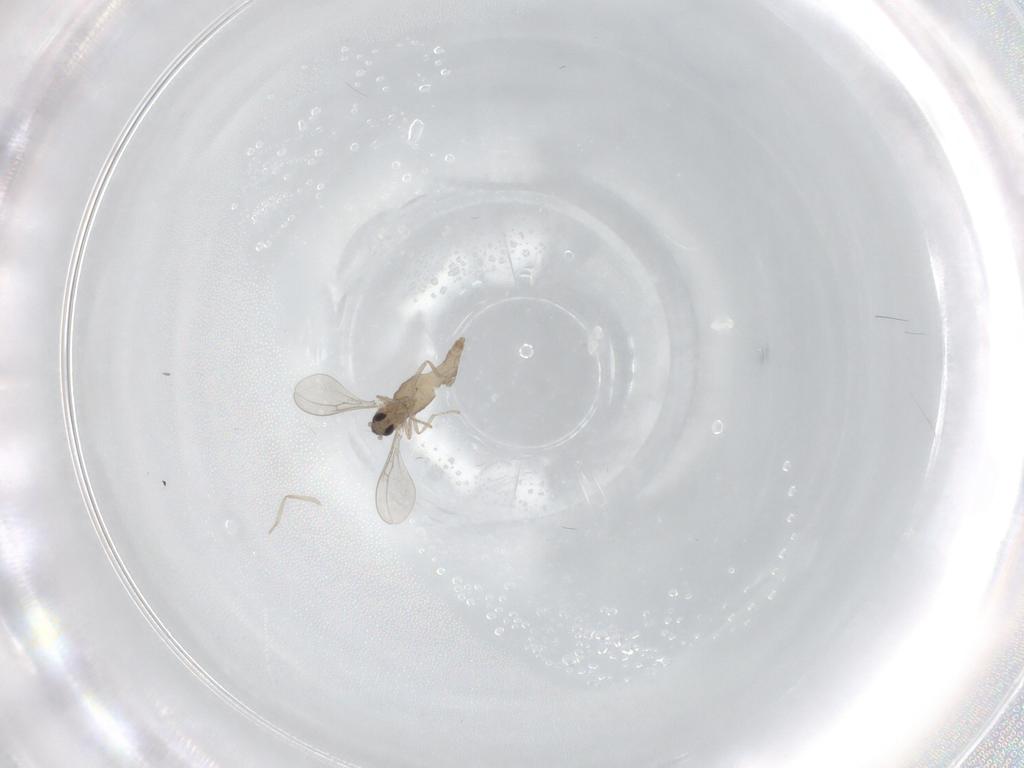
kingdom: Animalia
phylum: Arthropoda
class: Insecta
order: Diptera
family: Cecidomyiidae
